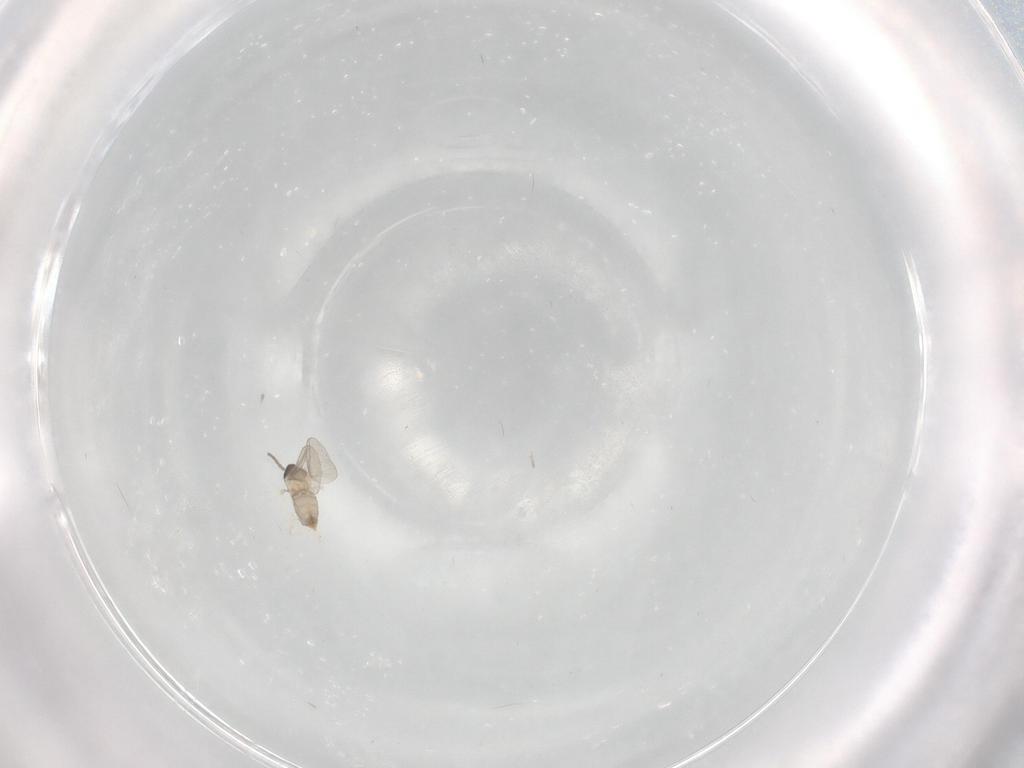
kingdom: Animalia
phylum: Arthropoda
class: Insecta
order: Diptera
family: Cecidomyiidae
